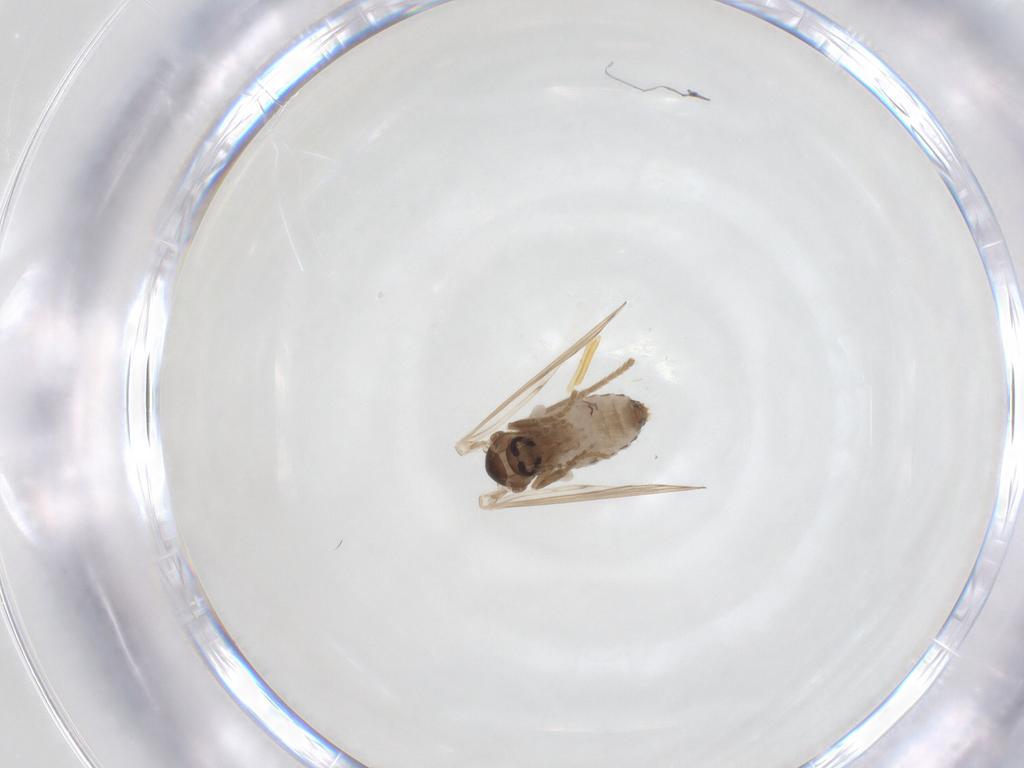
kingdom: Animalia
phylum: Arthropoda
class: Insecta
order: Diptera
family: Psychodidae
